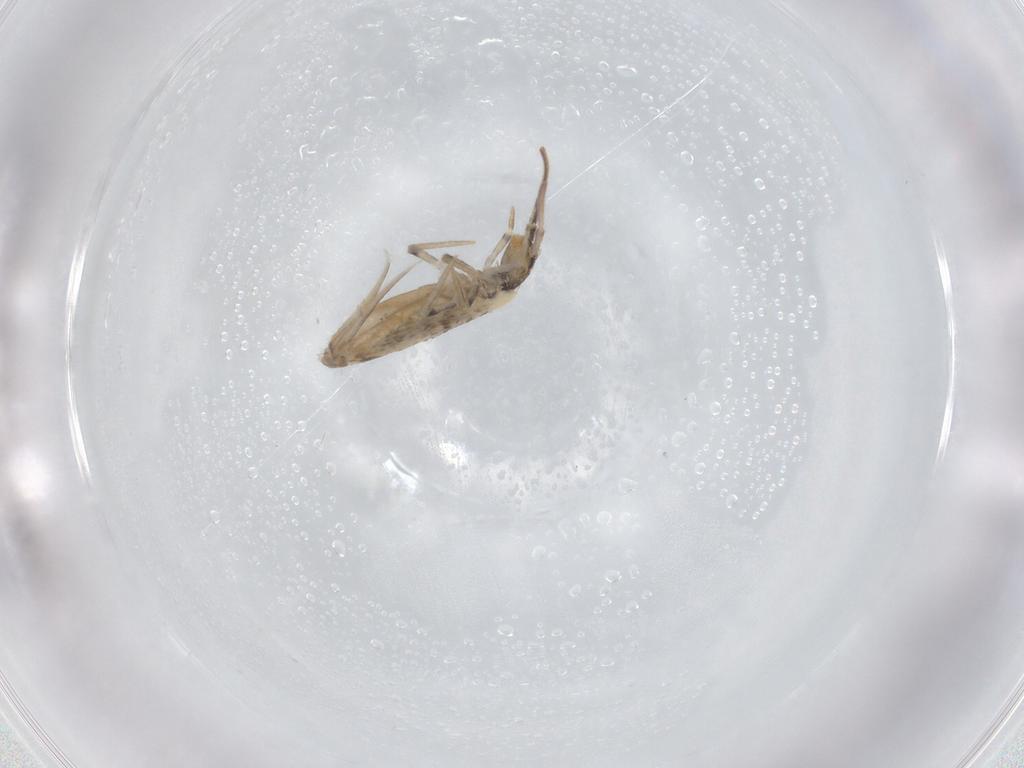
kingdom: Animalia
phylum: Arthropoda
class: Collembola
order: Entomobryomorpha
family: Entomobryidae
